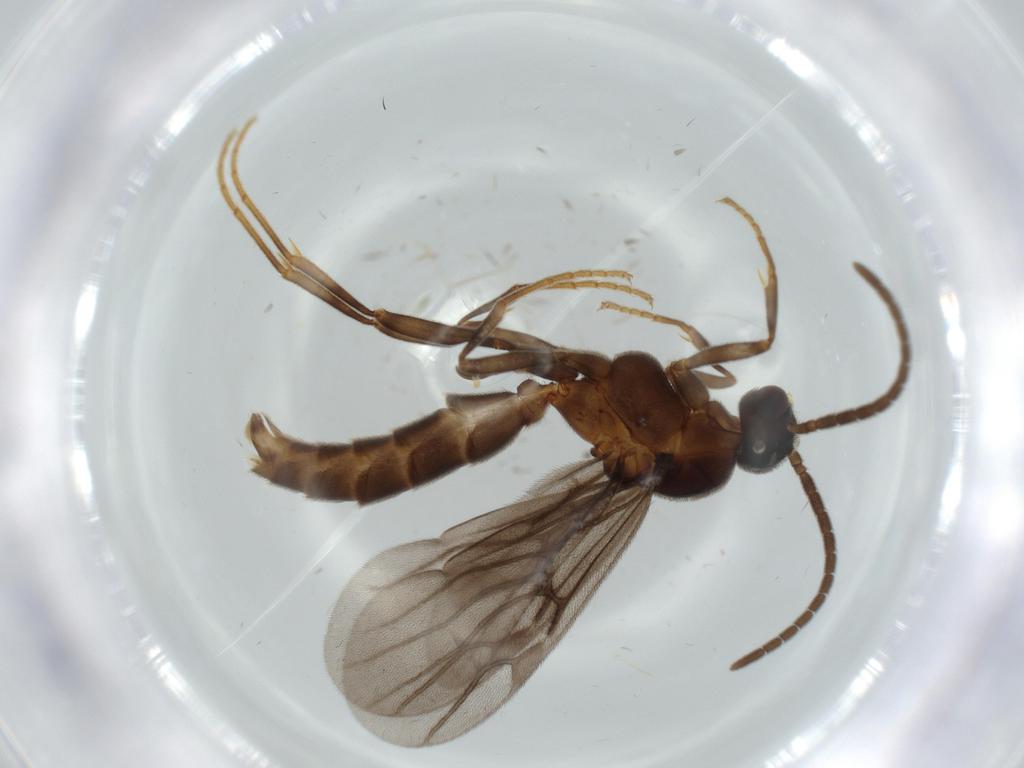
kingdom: Animalia
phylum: Arthropoda
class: Insecta
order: Hymenoptera
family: Formicidae
